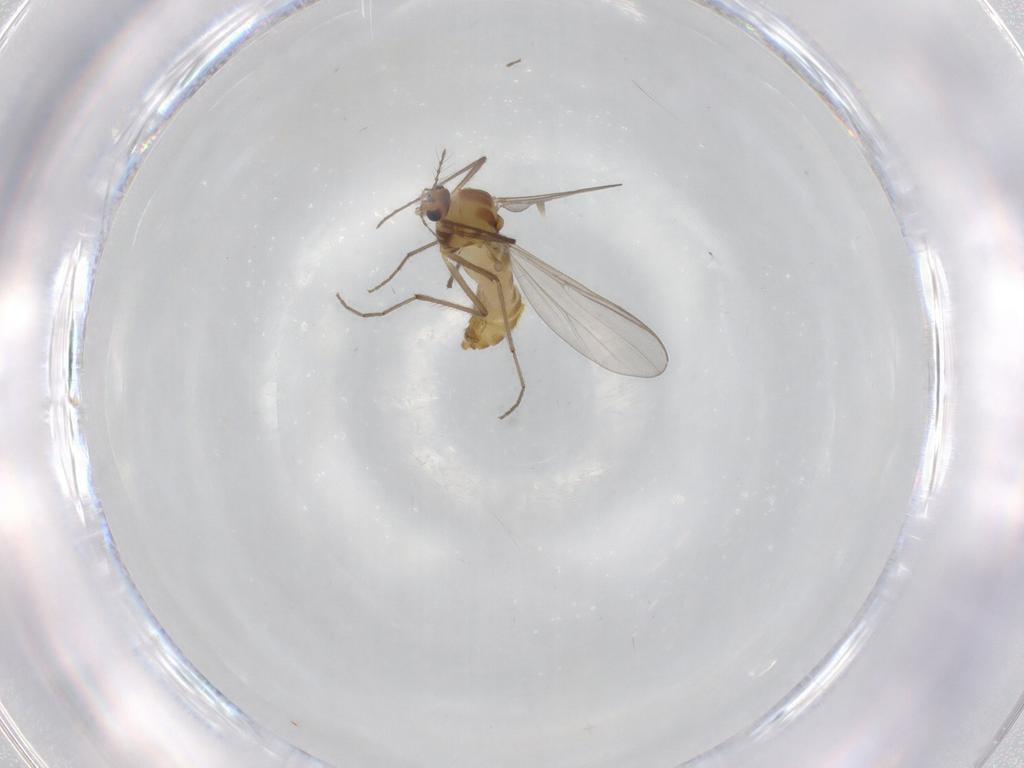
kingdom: Animalia
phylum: Arthropoda
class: Insecta
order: Diptera
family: Chironomidae
